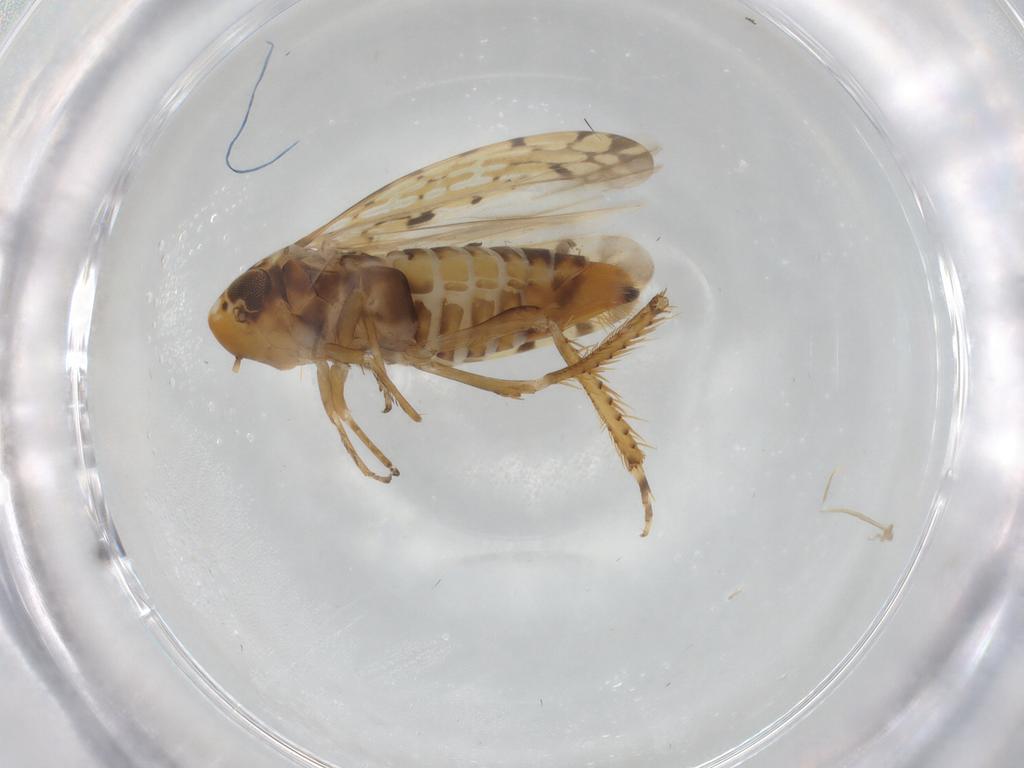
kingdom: Animalia
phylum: Arthropoda
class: Insecta
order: Hemiptera
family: Cicadellidae
